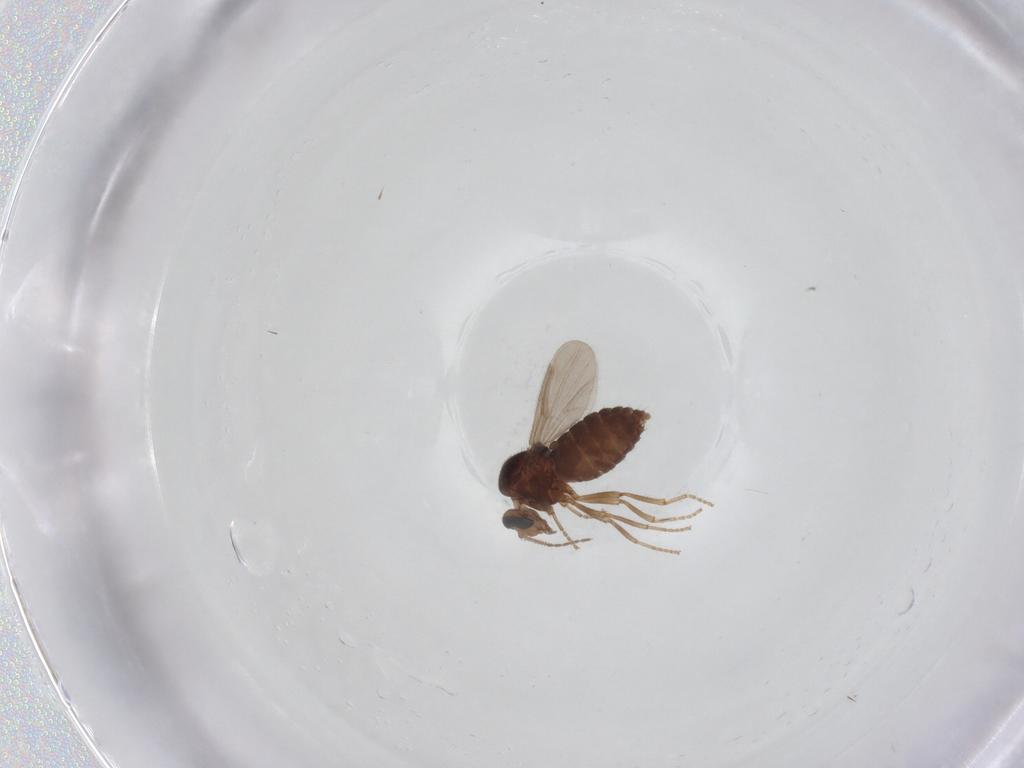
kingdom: Animalia
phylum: Arthropoda
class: Insecta
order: Diptera
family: Ceratopogonidae
